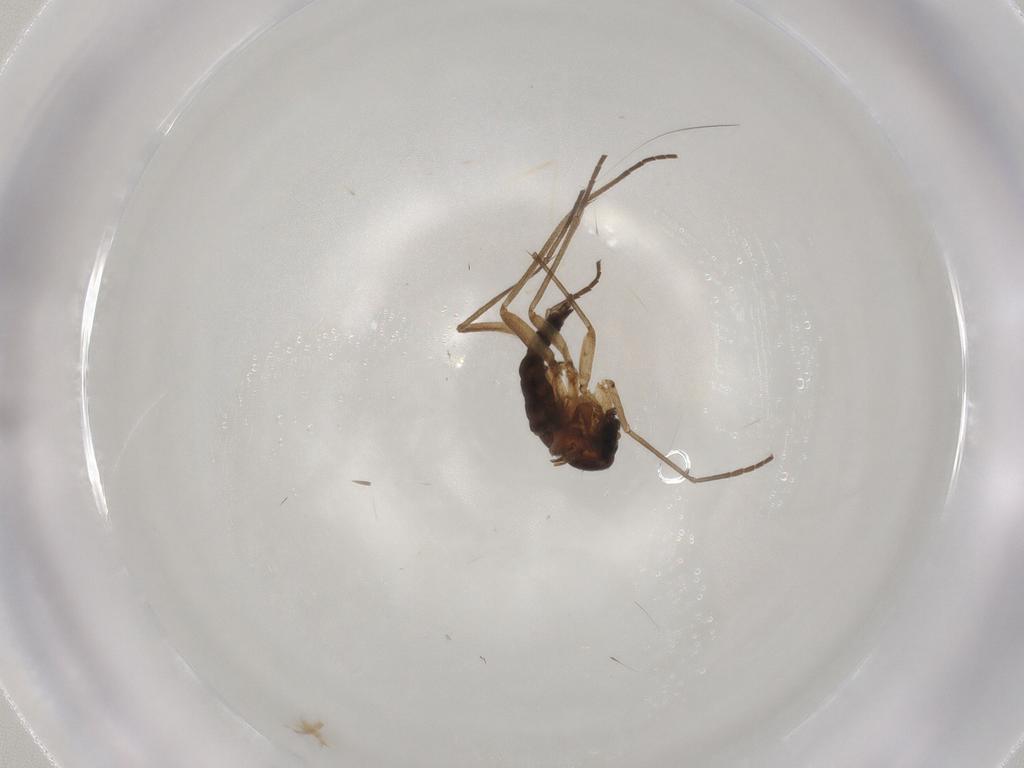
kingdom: Animalia
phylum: Arthropoda
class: Insecta
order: Diptera
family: Sciaridae
